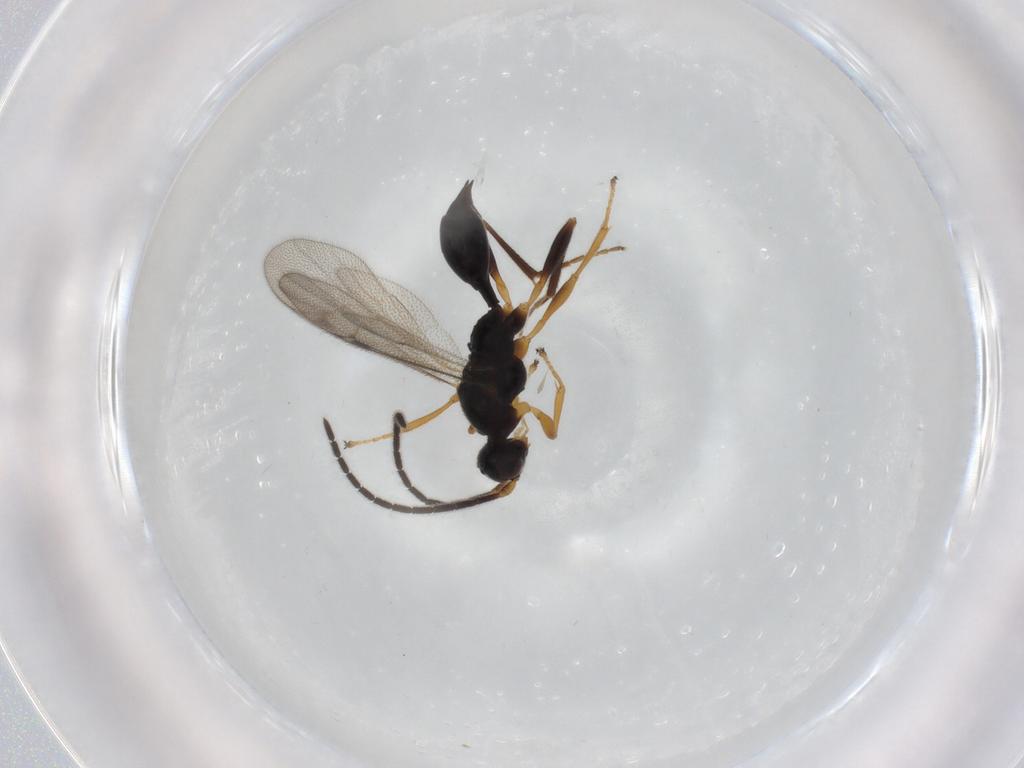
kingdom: Animalia
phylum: Arthropoda
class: Insecta
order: Hymenoptera
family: Proctotrupidae
